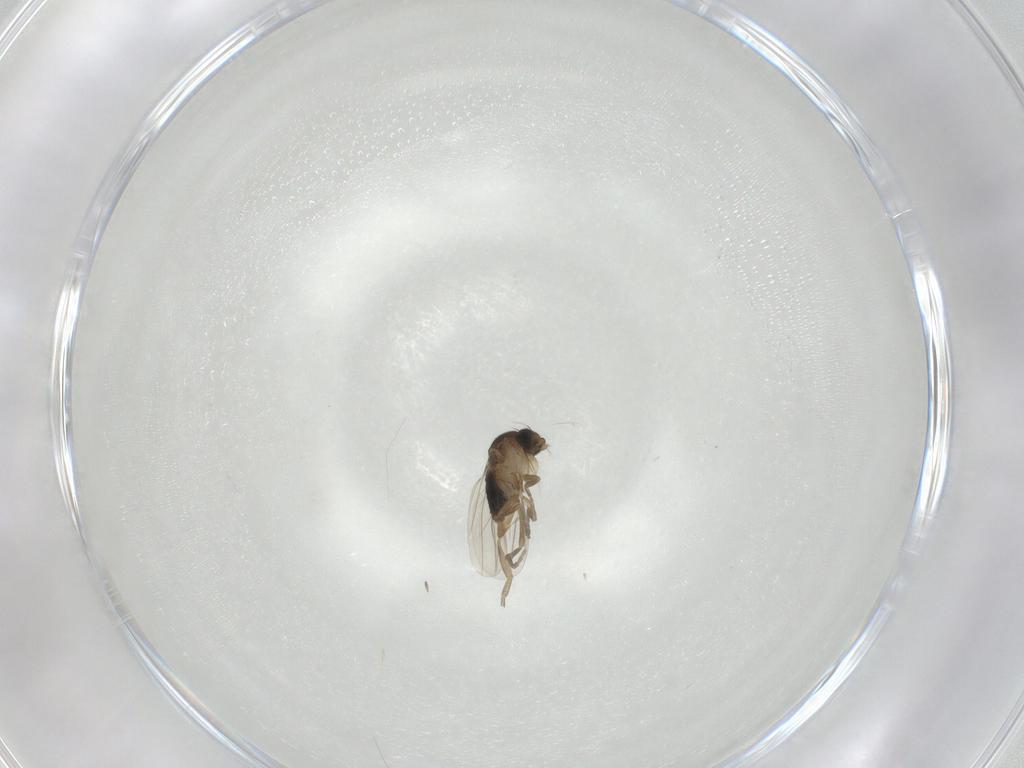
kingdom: Animalia
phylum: Arthropoda
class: Insecta
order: Diptera
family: Phoridae
